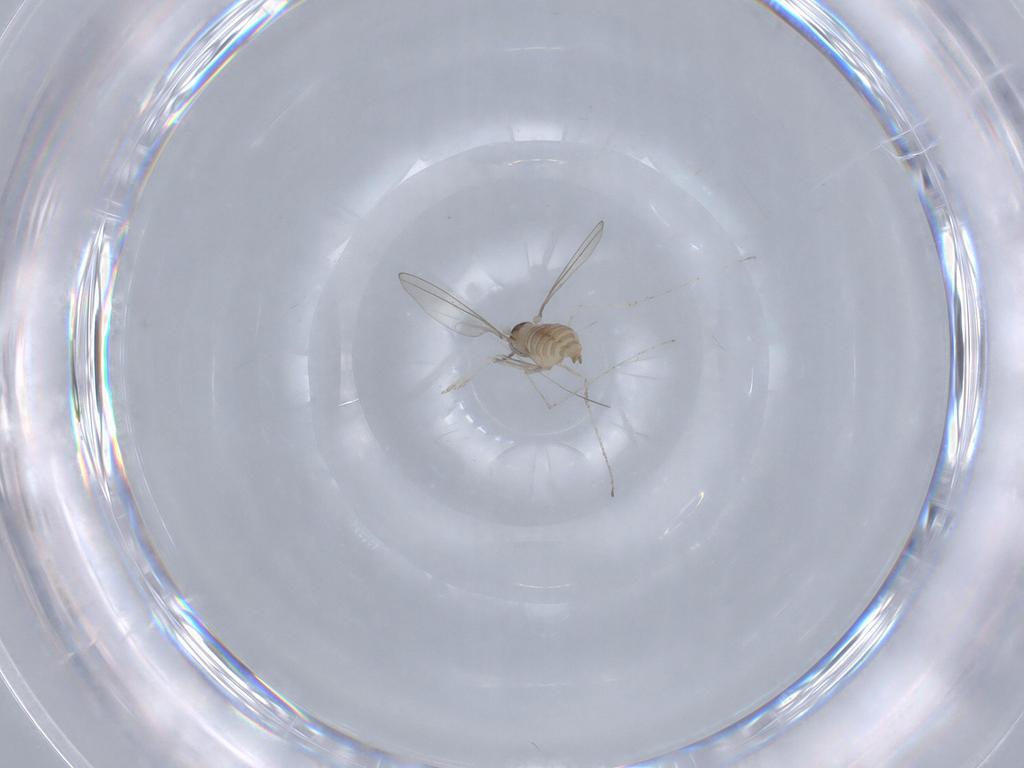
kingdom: Animalia
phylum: Arthropoda
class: Insecta
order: Diptera
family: Cecidomyiidae
